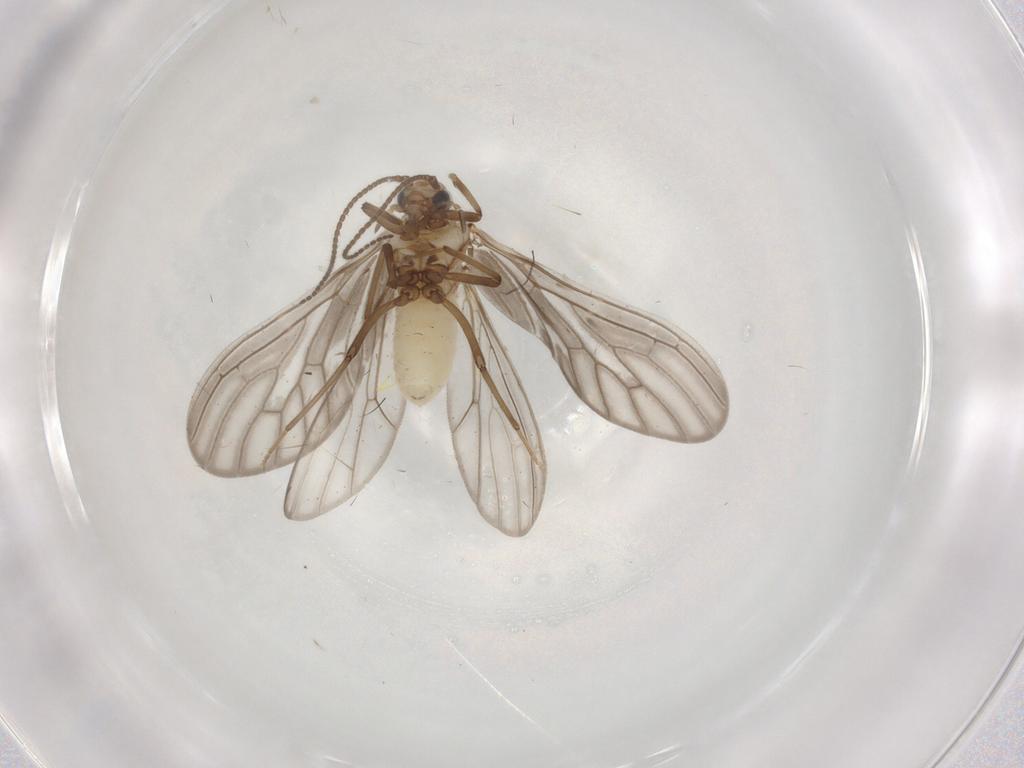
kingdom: Animalia
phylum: Arthropoda
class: Insecta
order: Neuroptera
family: Coniopterygidae
